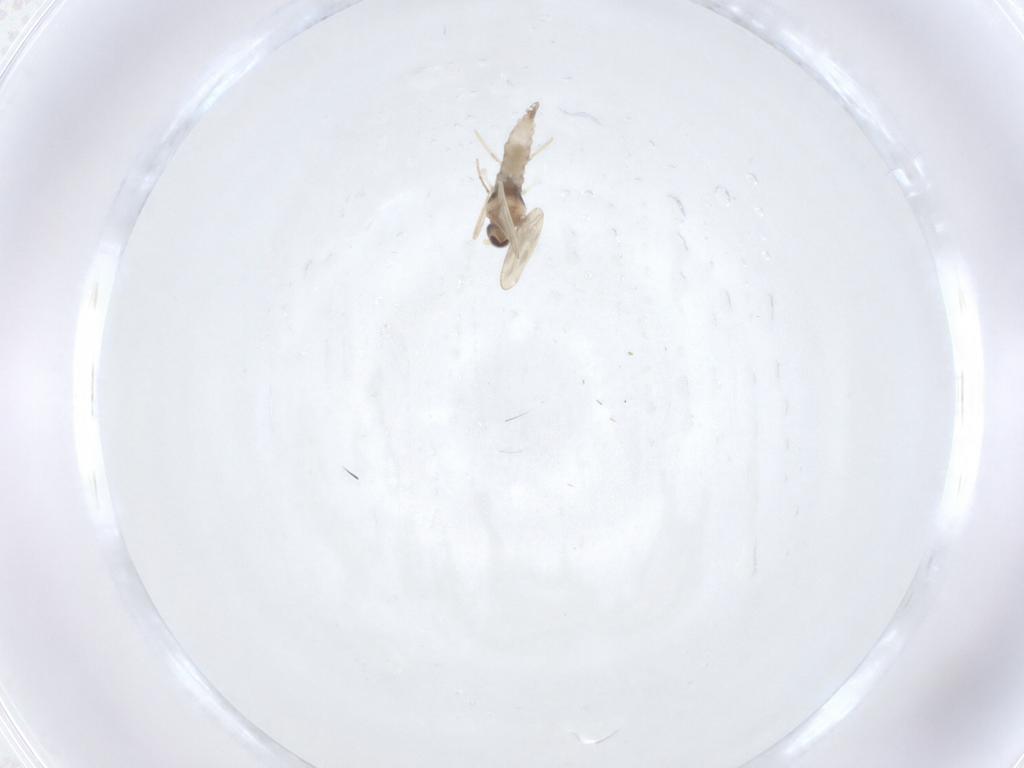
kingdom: Animalia
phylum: Arthropoda
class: Insecta
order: Diptera
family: Cecidomyiidae
